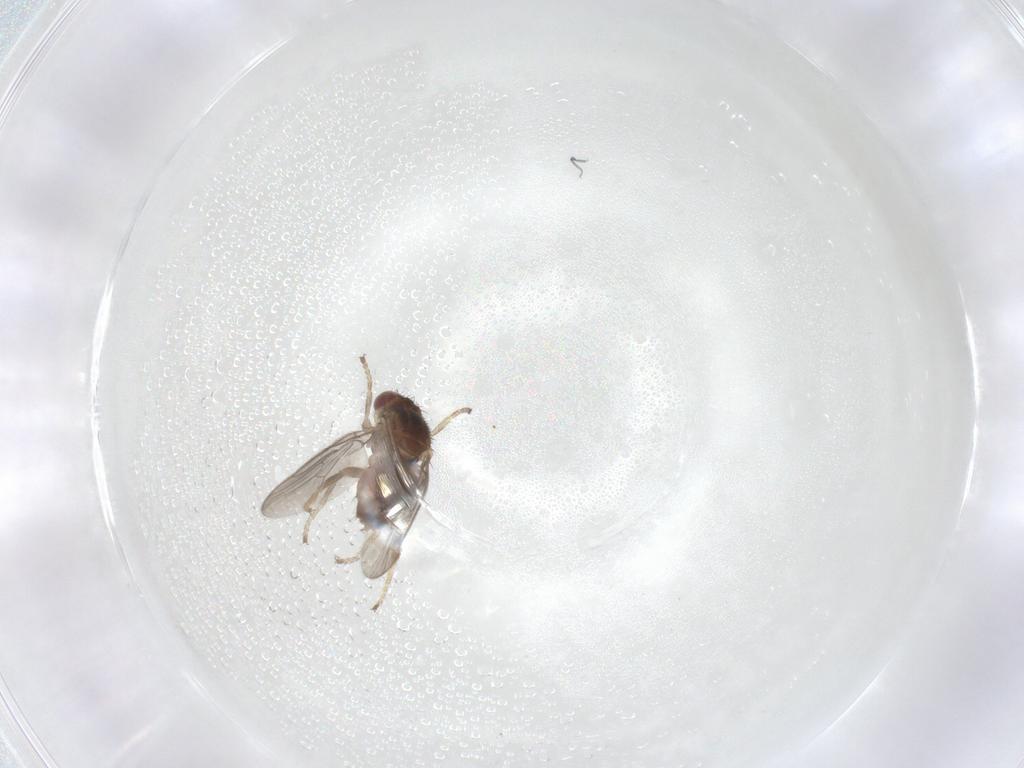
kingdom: Animalia
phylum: Arthropoda
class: Insecta
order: Diptera
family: Chloropidae
